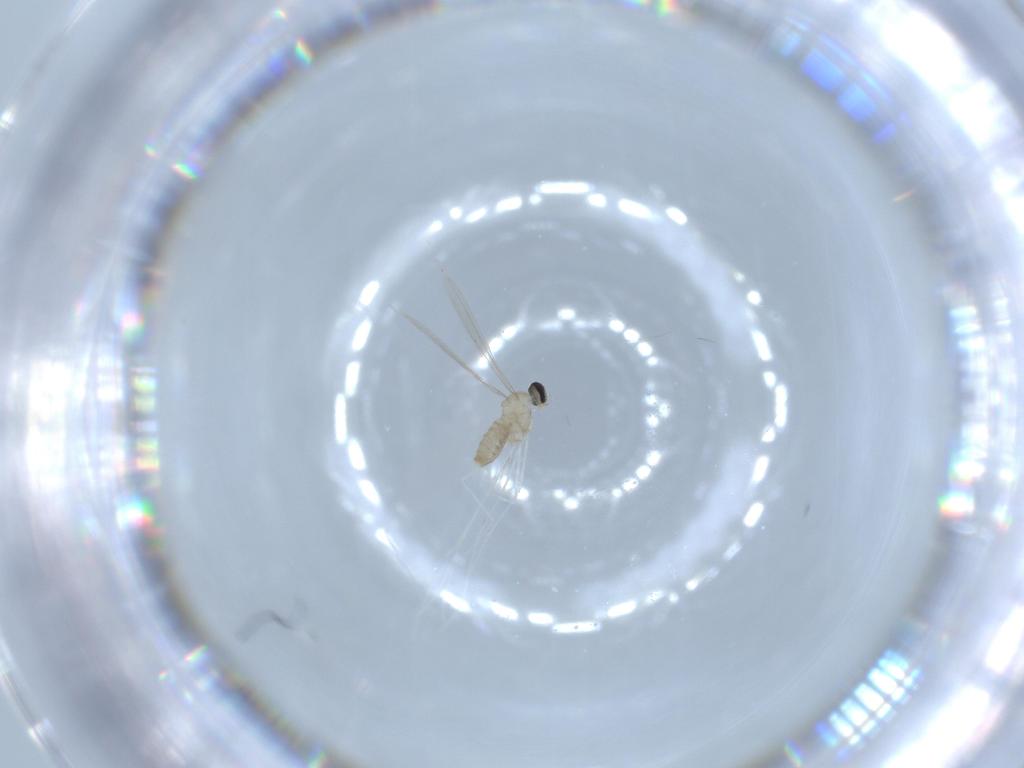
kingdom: Animalia
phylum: Arthropoda
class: Insecta
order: Diptera
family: Cecidomyiidae
